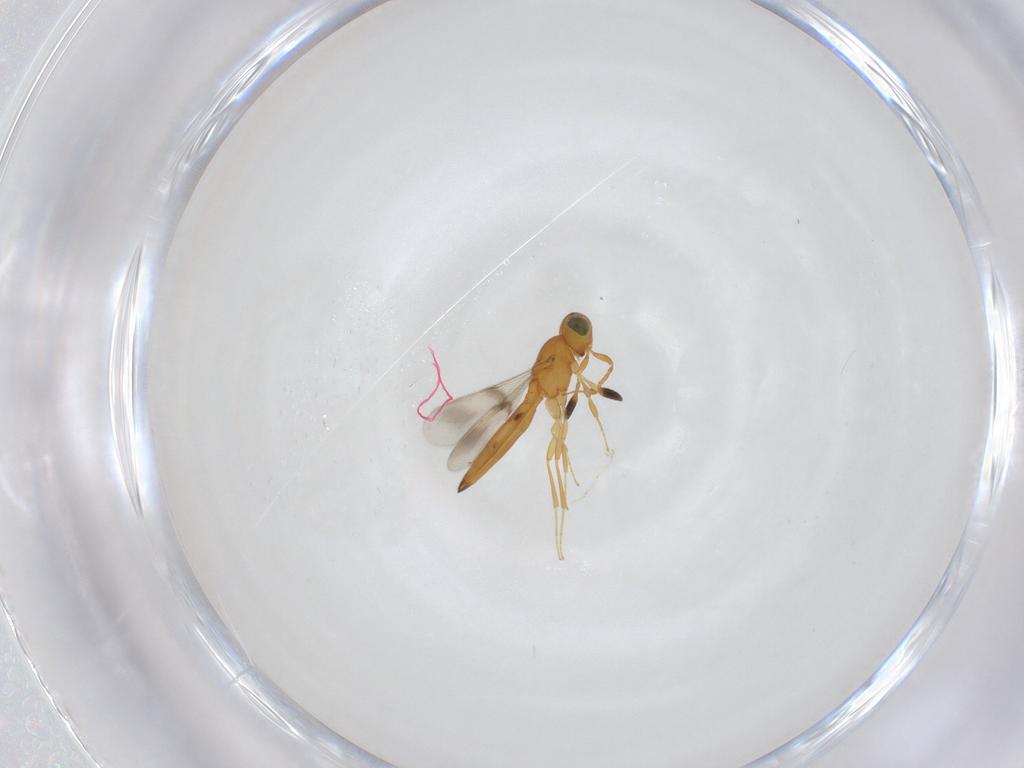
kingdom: Animalia
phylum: Arthropoda
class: Insecta
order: Hymenoptera
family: Scelionidae
